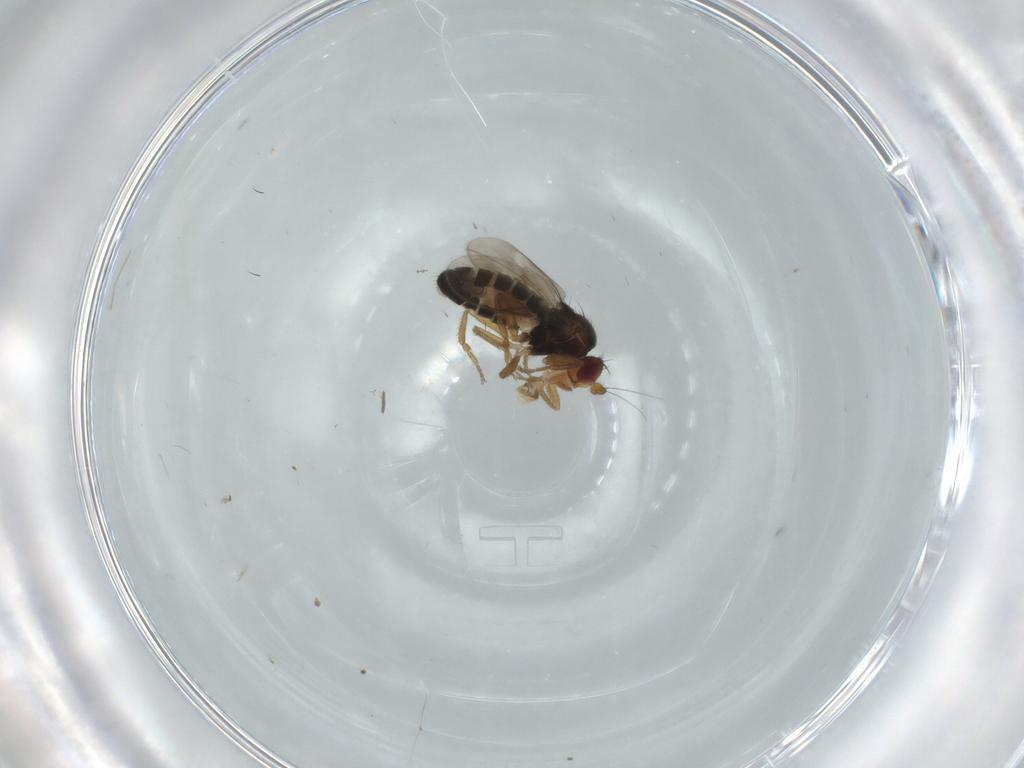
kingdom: Animalia
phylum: Arthropoda
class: Insecta
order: Diptera
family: Sphaeroceridae
